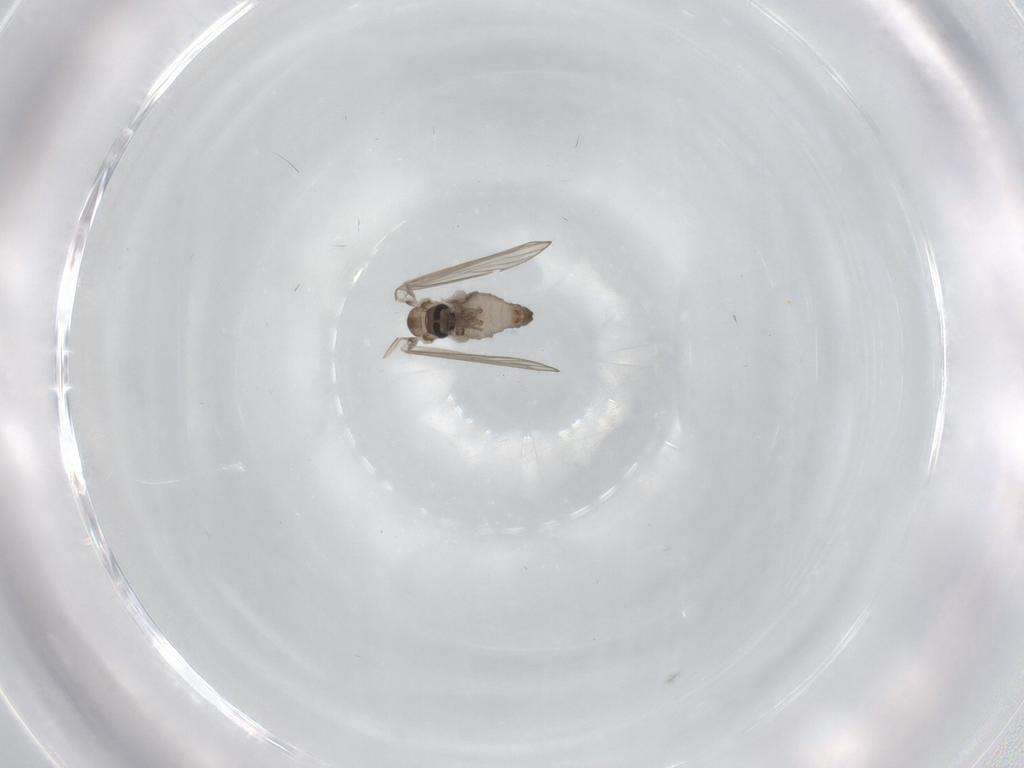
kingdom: Animalia
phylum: Arthropoda
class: Insecta
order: Diptera
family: Psychodidae
